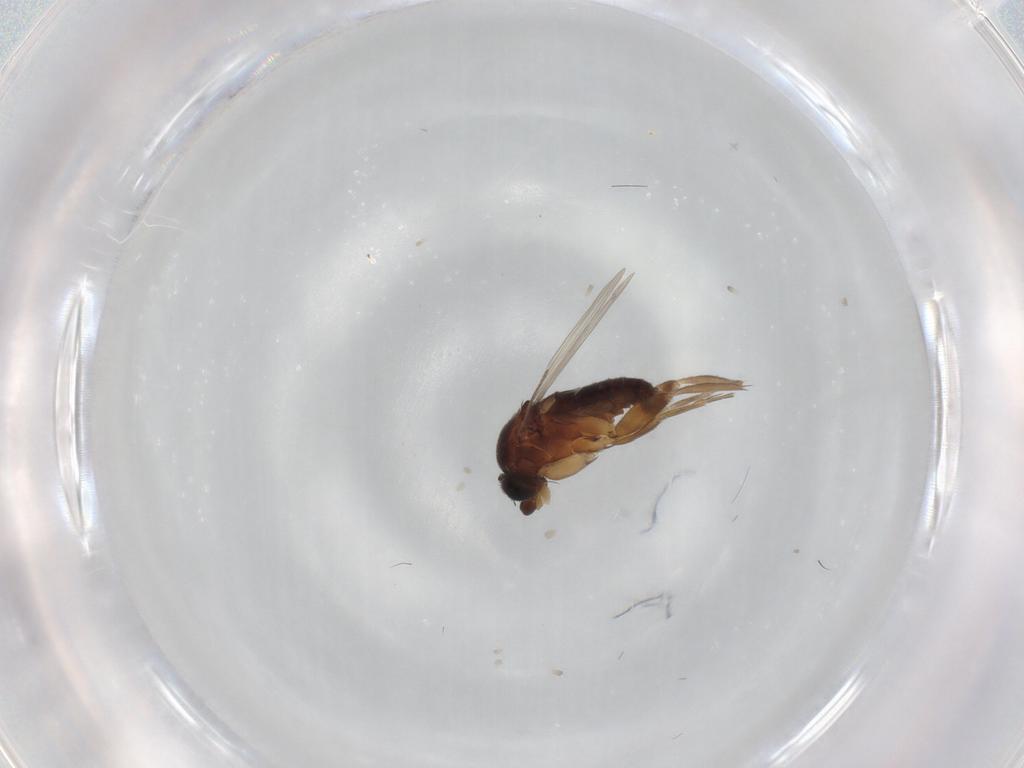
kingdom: Animalia
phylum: Arthropoda
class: Insecta
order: Diptera
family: Phoridae
